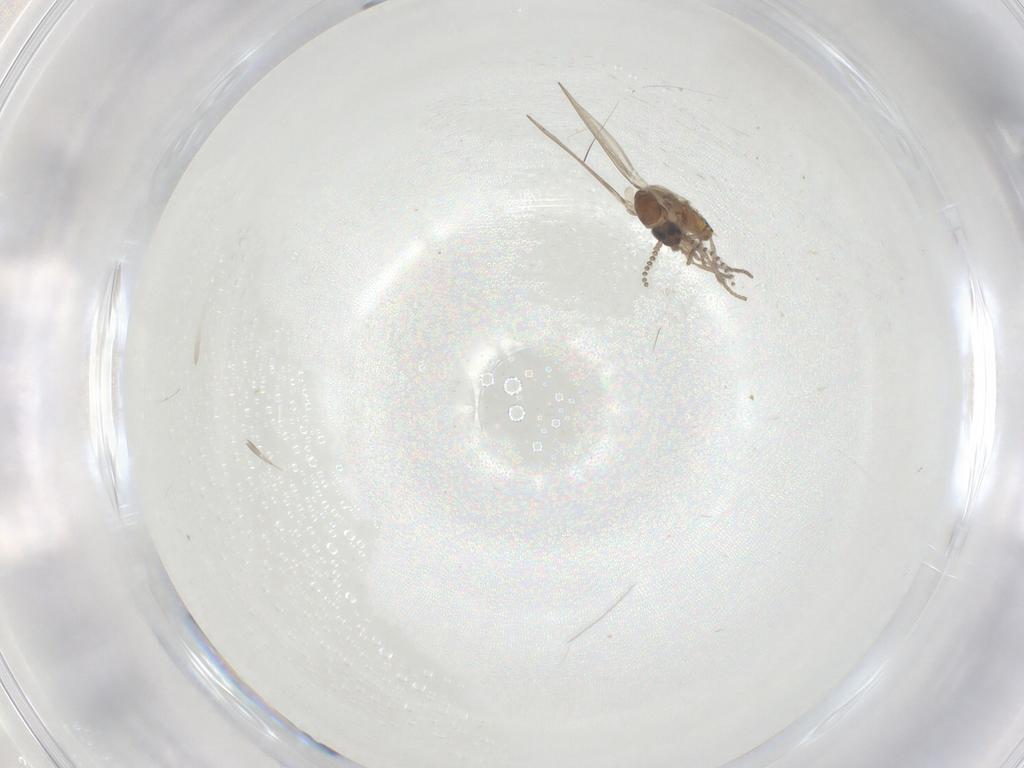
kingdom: Animalia
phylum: Arthropoda
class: Insecta
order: Diptera
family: Psychodidae
